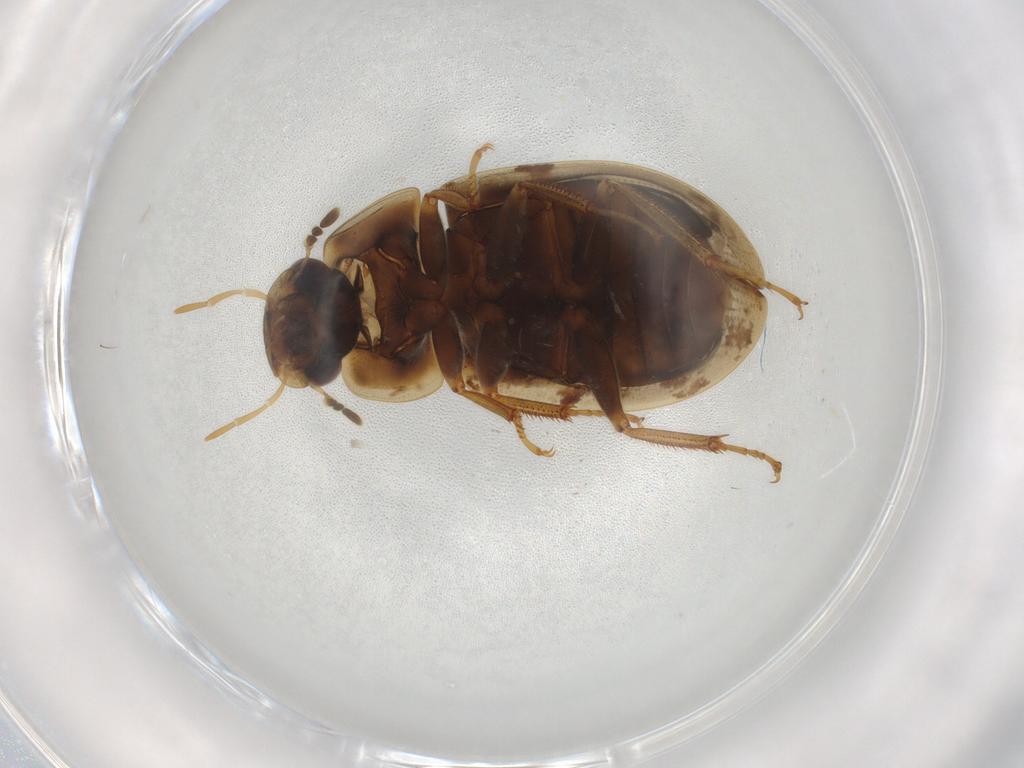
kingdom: Animalia
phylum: Arthropoda
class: Insecta
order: Coleoptera
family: Hydrophilidae
